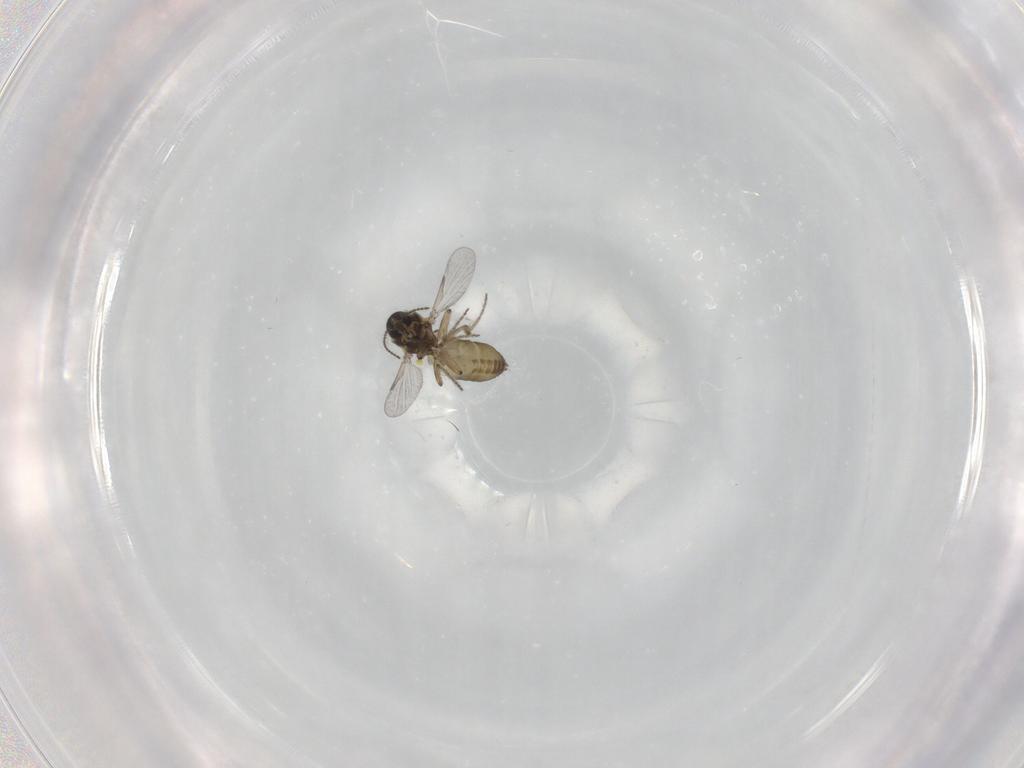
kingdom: Animalia
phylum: Arthropoda
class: Insecta
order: Diptera
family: Ceratopogonidae
